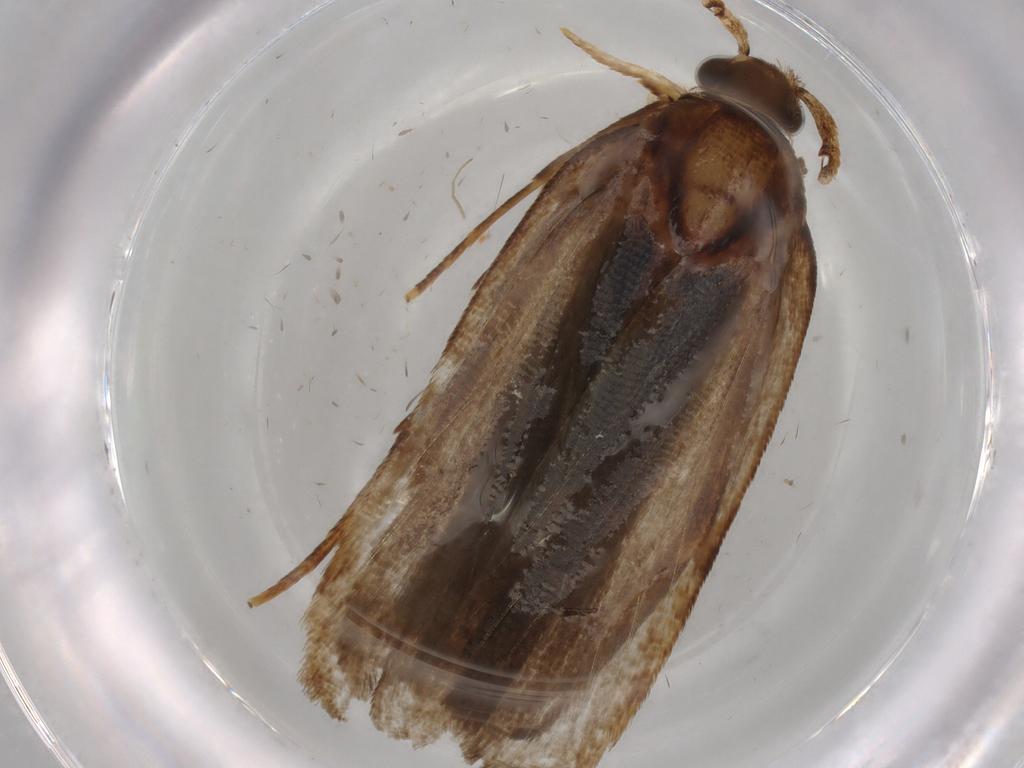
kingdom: Animalia
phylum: Arthropoda
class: Insecta
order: Lepidoptera
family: Autostichidae
